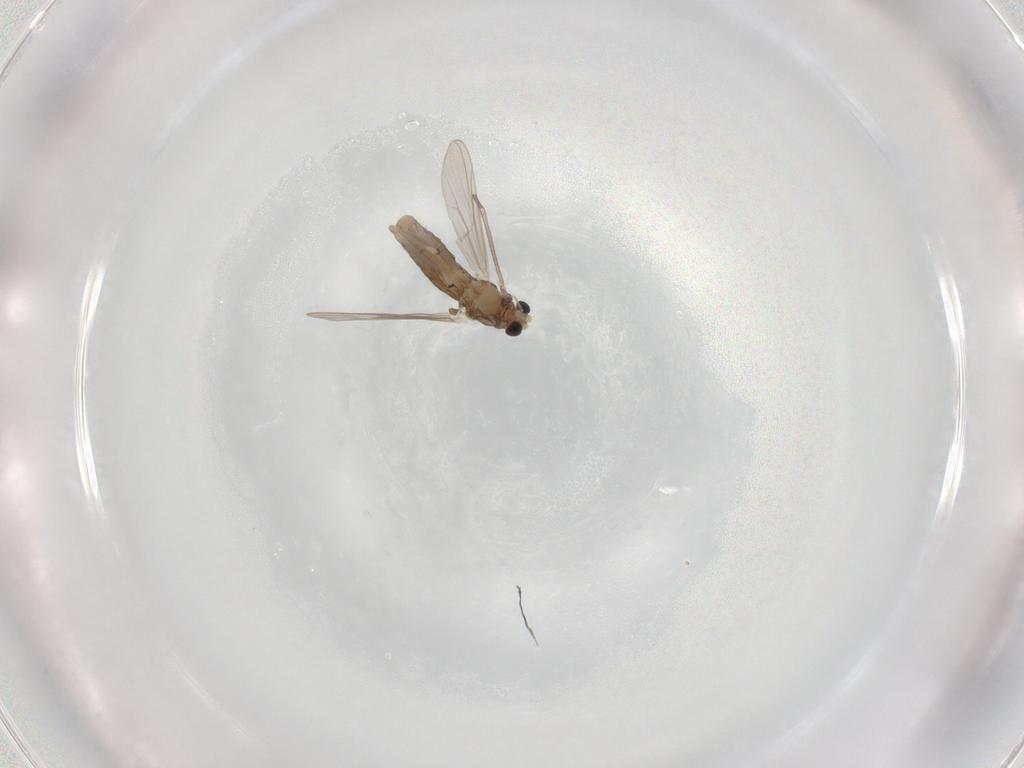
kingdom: Animalia
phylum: Arthropoda
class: Insecta
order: Diptera
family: Chironomidae
